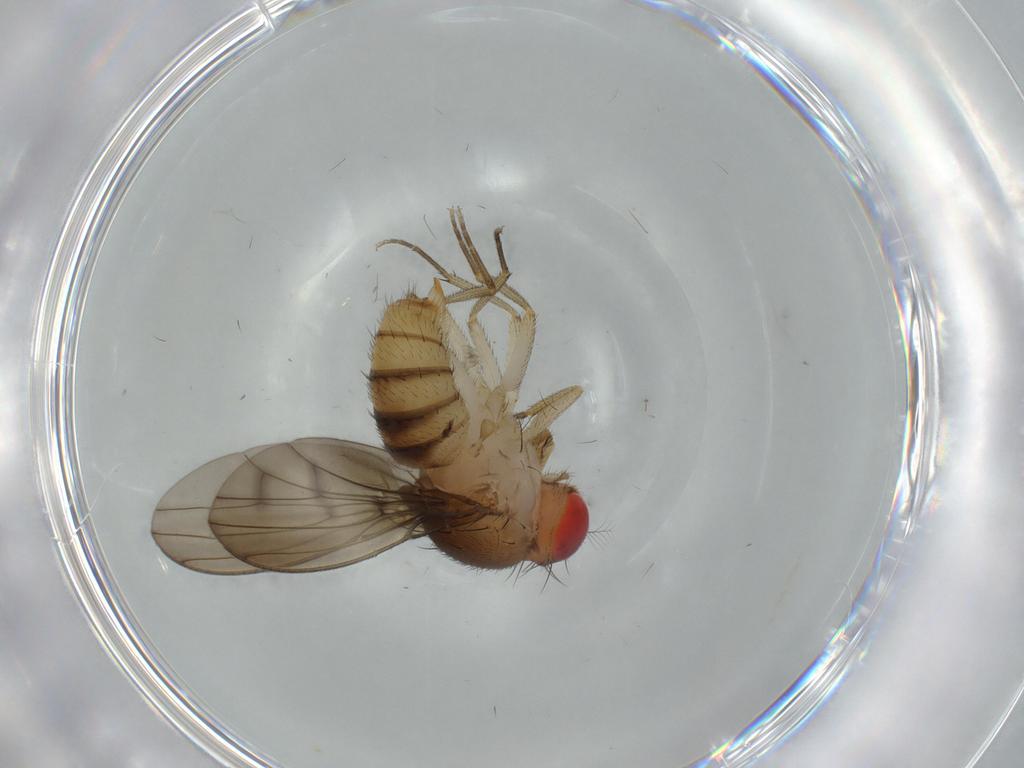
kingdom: Animalia
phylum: Arthropoda
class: Insecta
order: Diptera
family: Drosophilidae
